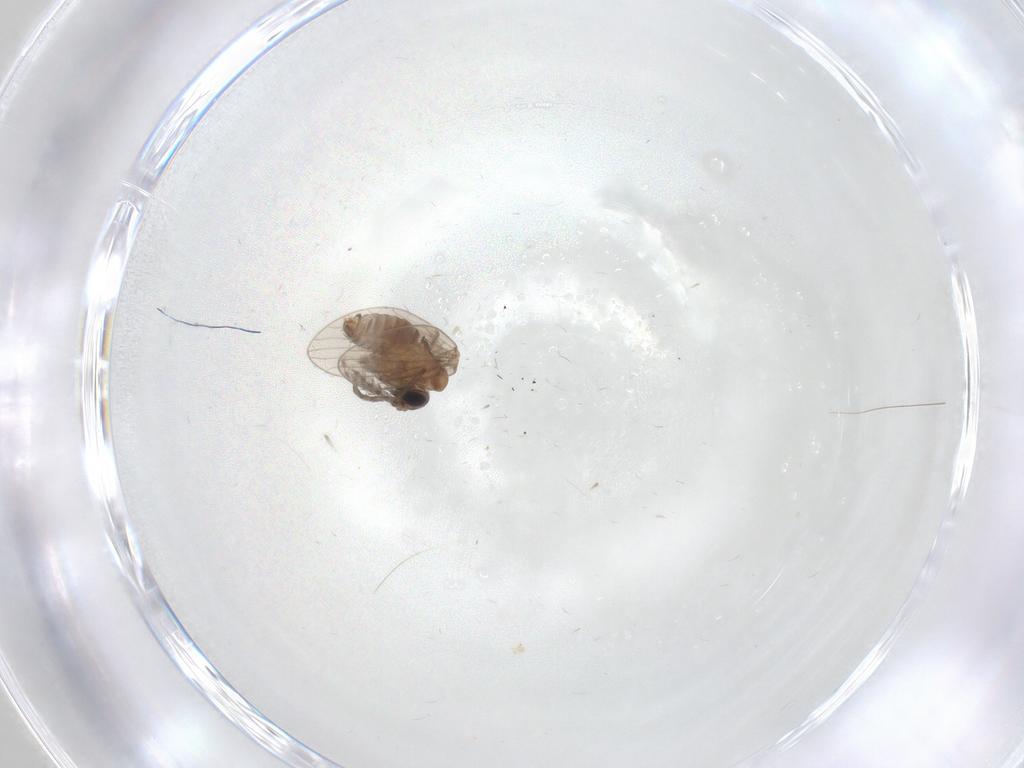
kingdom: Animalia
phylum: Arthropoda
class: Insecta
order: Diptera
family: Psychodidae
